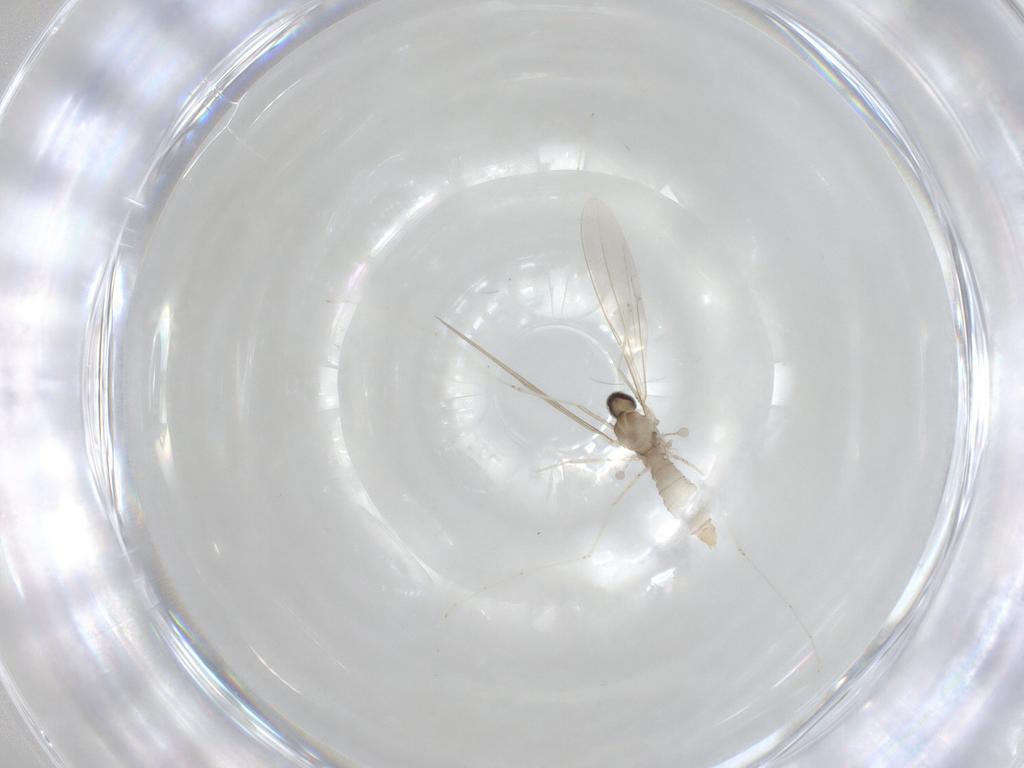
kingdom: Animalia
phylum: Arthropoda
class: Insecta
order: Diptera
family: Cecidomyiidae
